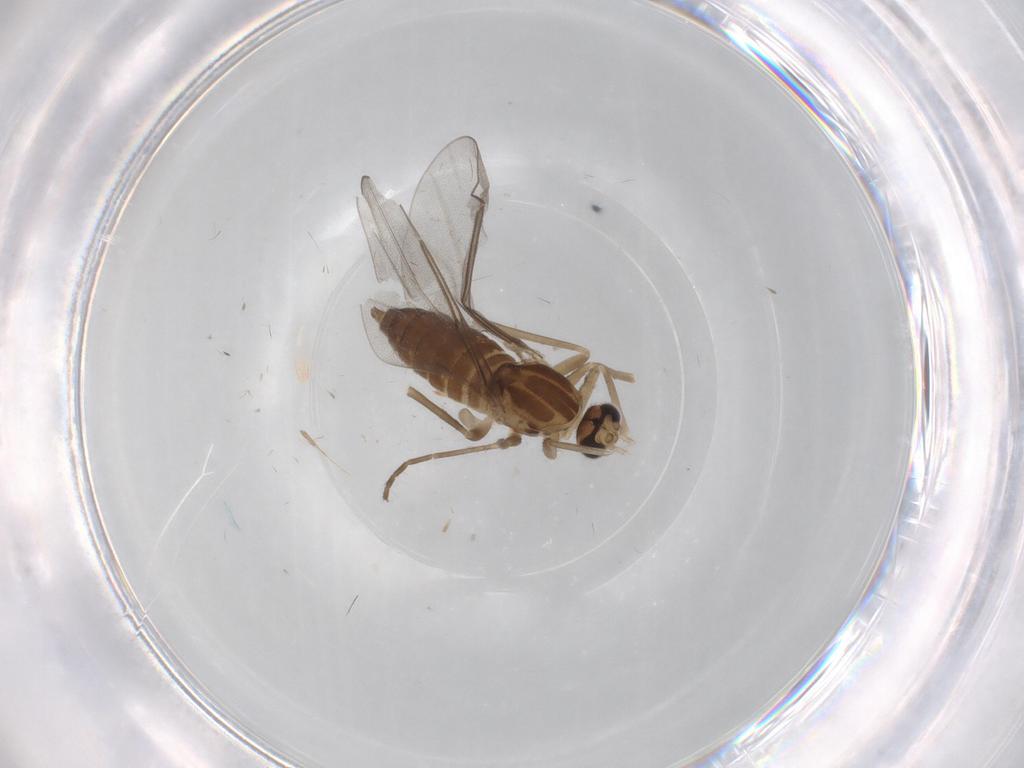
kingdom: Animalia
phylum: Arthropoda
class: Insecta
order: Diptera
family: Cecidomyiidae
